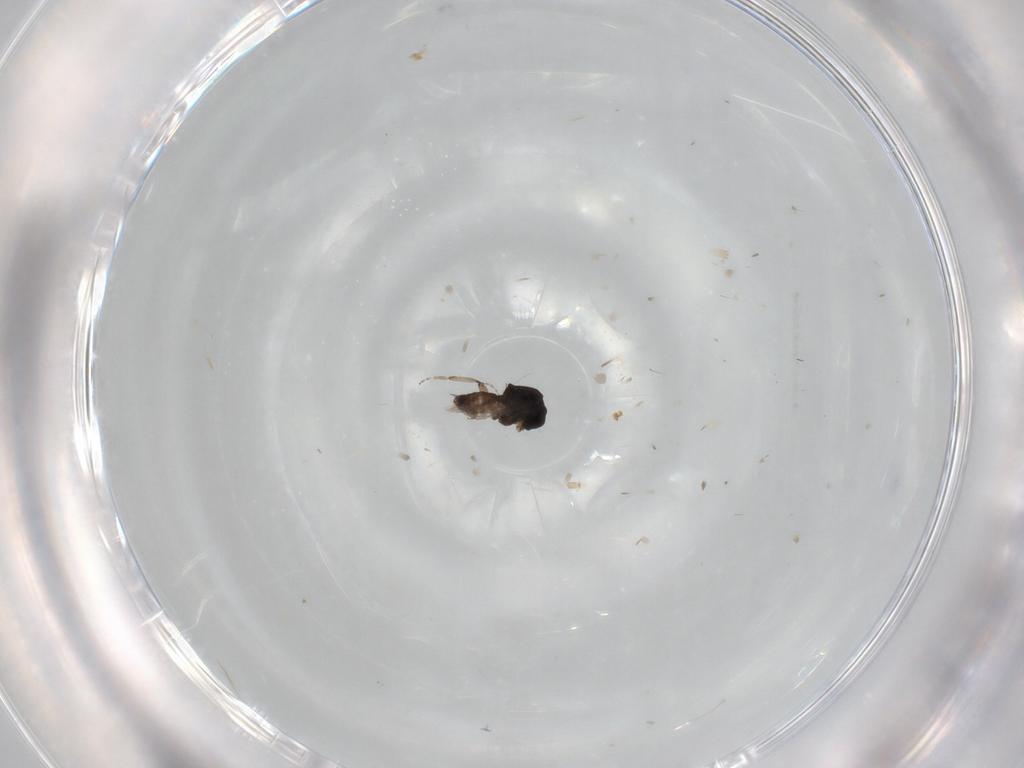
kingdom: Animalia
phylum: Arthropoda
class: Insecta
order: Diptera
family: Ceratopogonidae
